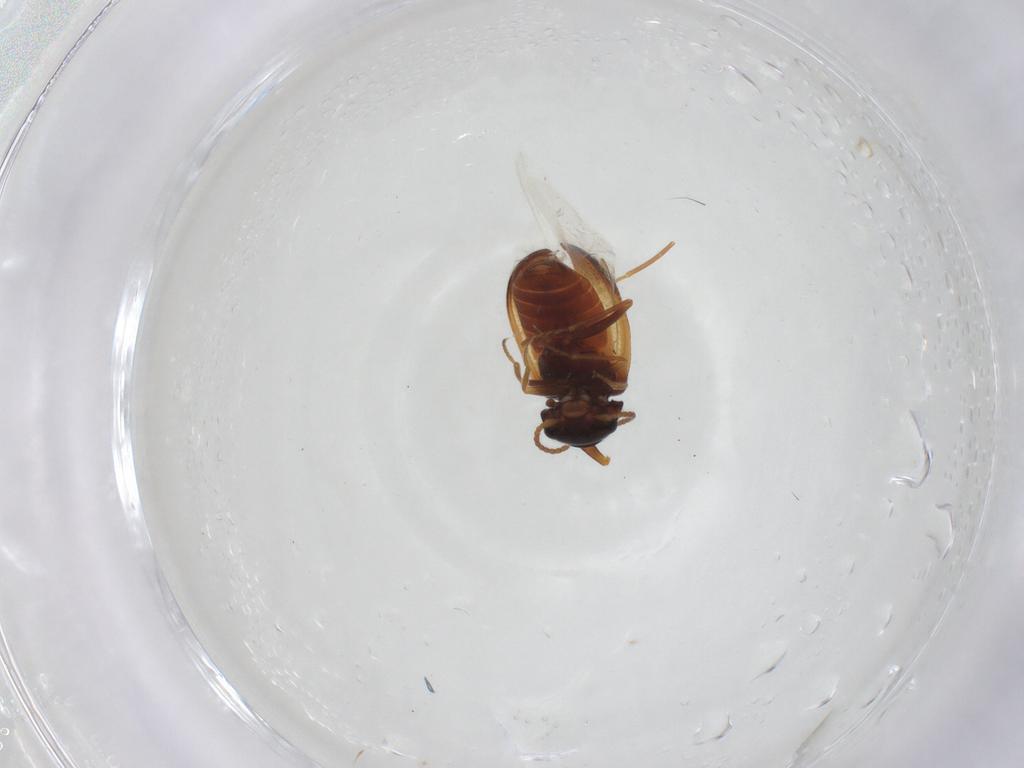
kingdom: Animalia
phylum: Arthropoda
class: Insecta
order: Coleoptera
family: Melyridae
